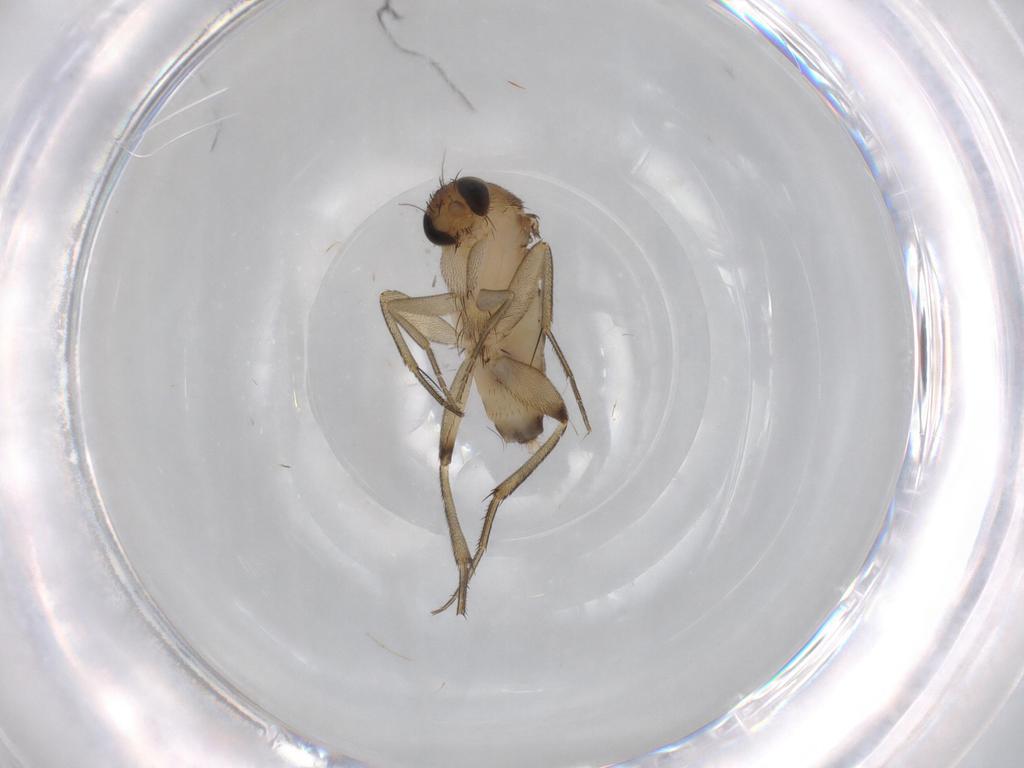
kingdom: Animalia
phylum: Arthropoda
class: Insecta
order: Diptera
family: Phoridae
